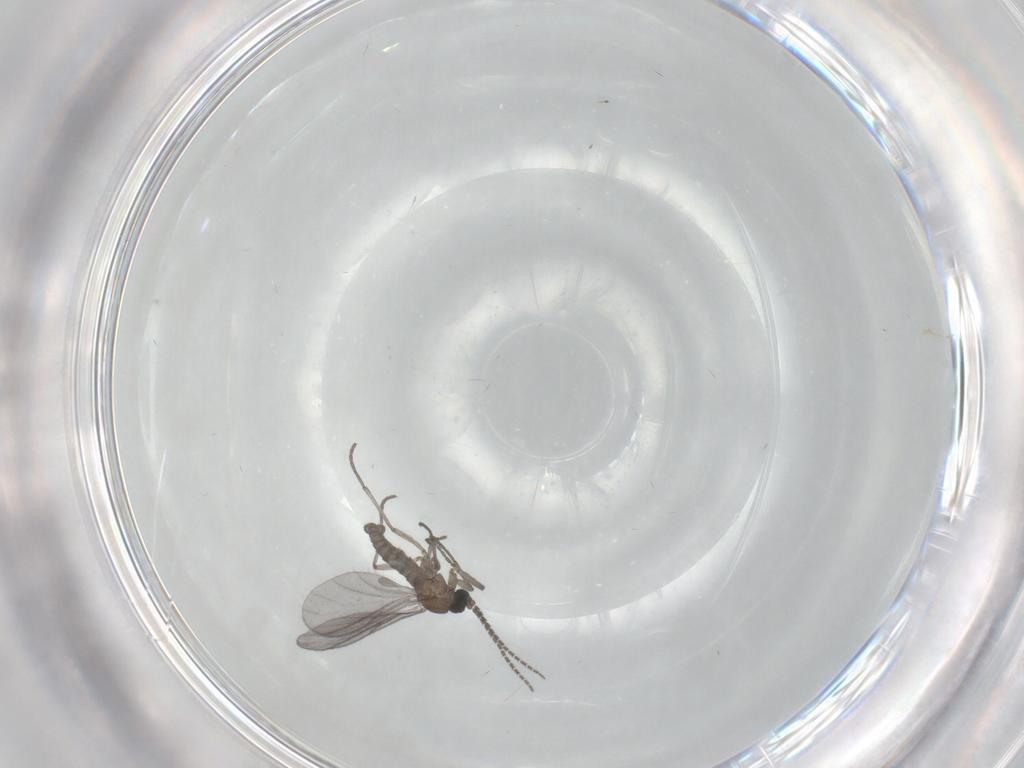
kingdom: Animalia
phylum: Arthropoda
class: Insecta
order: Diptera
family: Sciaridae
